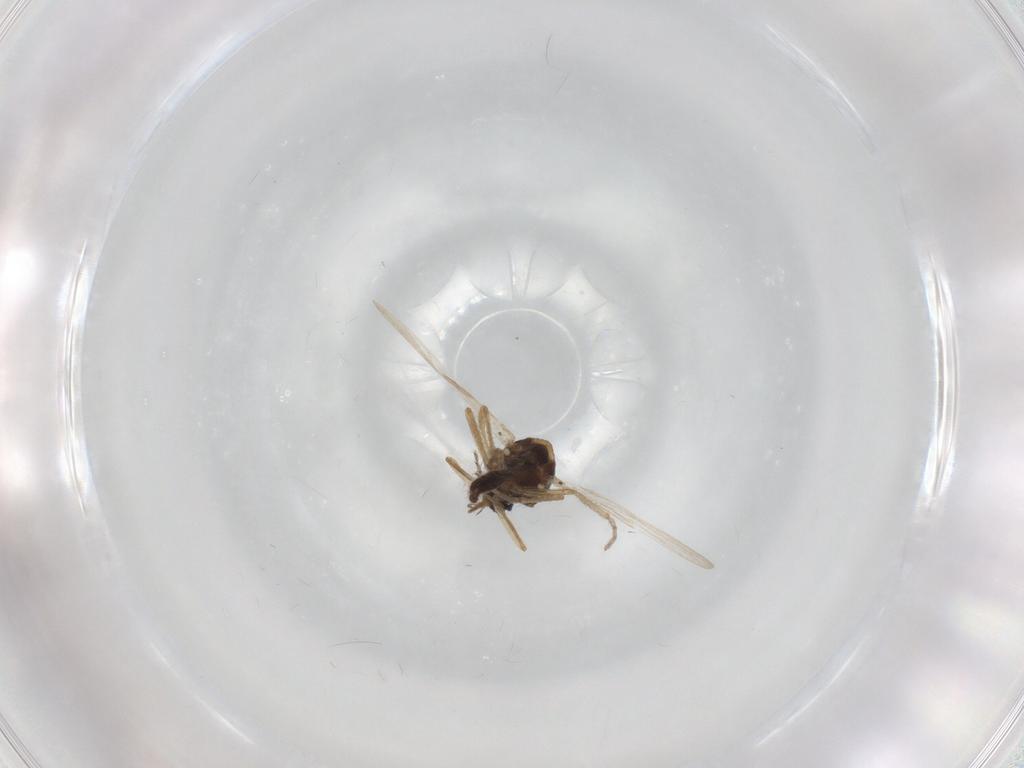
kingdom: Animalia
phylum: Arthropoda
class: Insecta
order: Diptera
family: Ceratopogonidae
